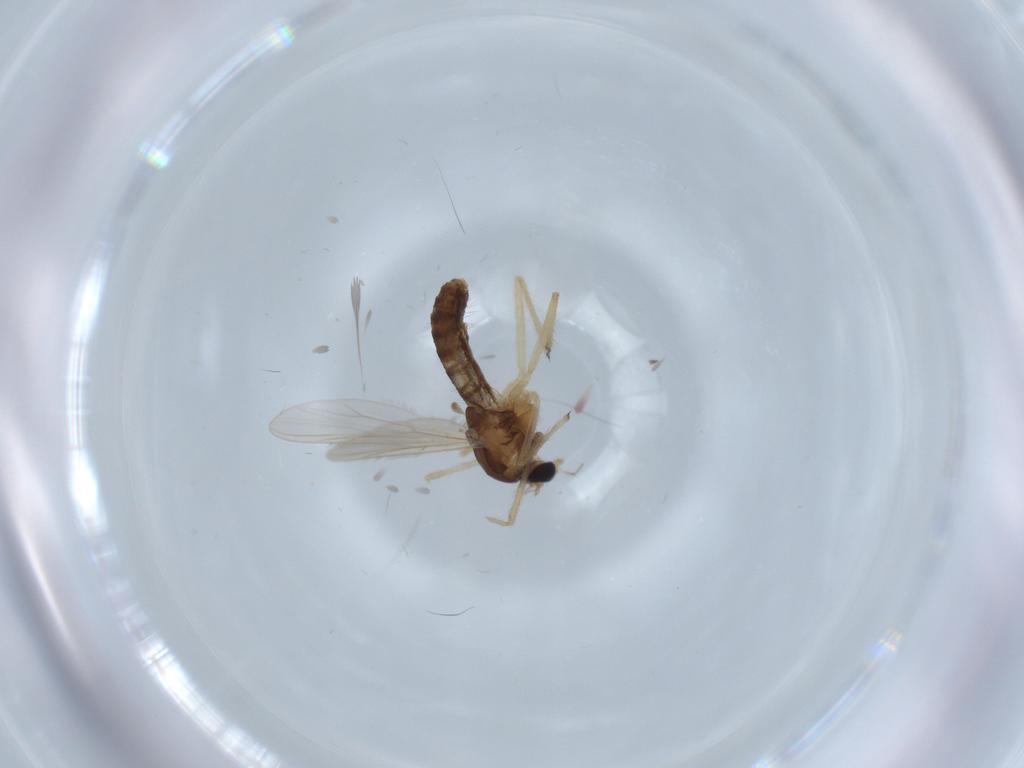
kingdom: Animalia
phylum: Arthropoda
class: Insecta
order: Diptera
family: Chironomidae
